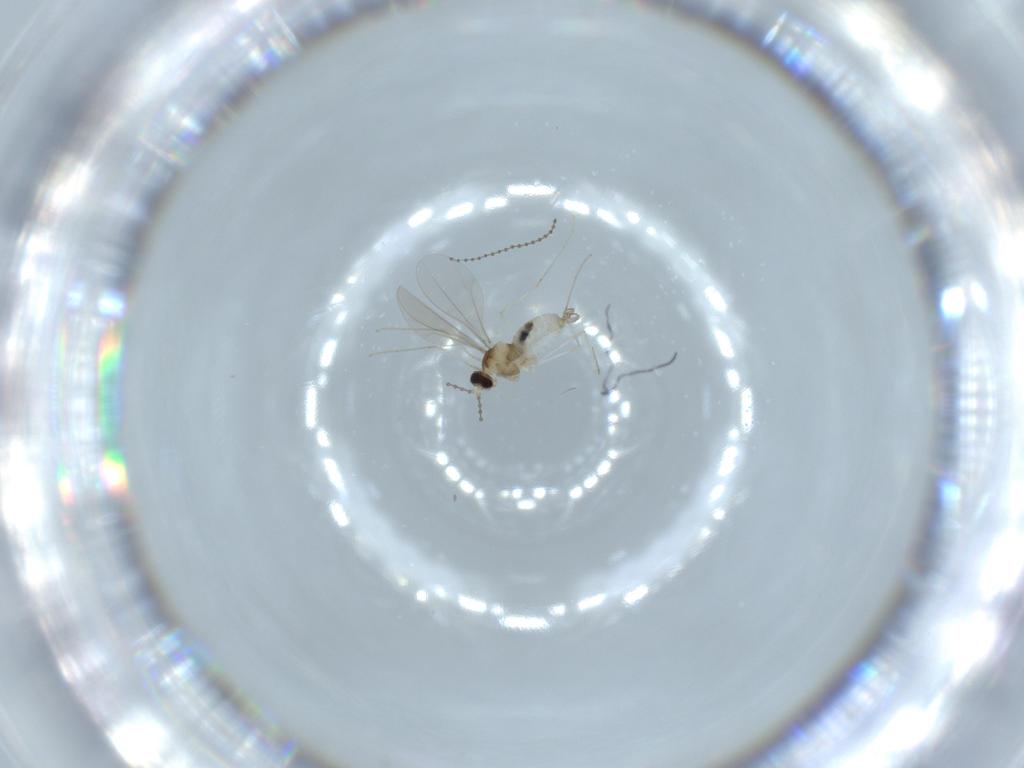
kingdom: Animalia
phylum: Arthropoda
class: Insecta
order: Diptera
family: Cecidomyiidae
